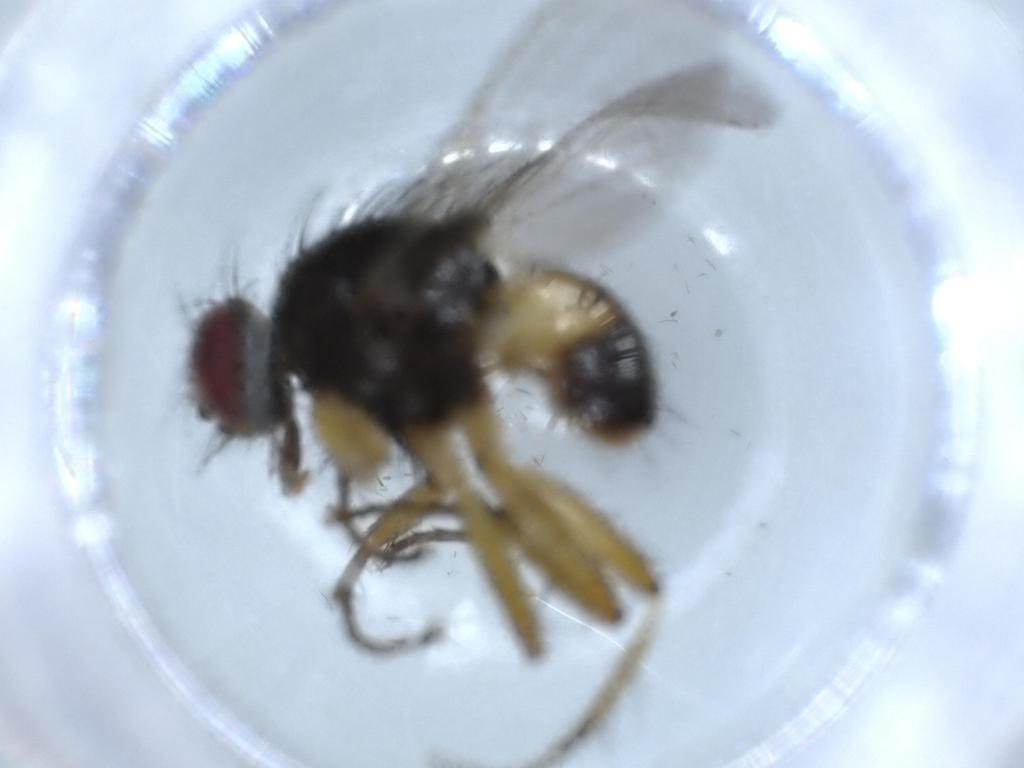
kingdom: Animalia
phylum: Arthropoda
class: Insecta
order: Diptera
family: Muscidae
